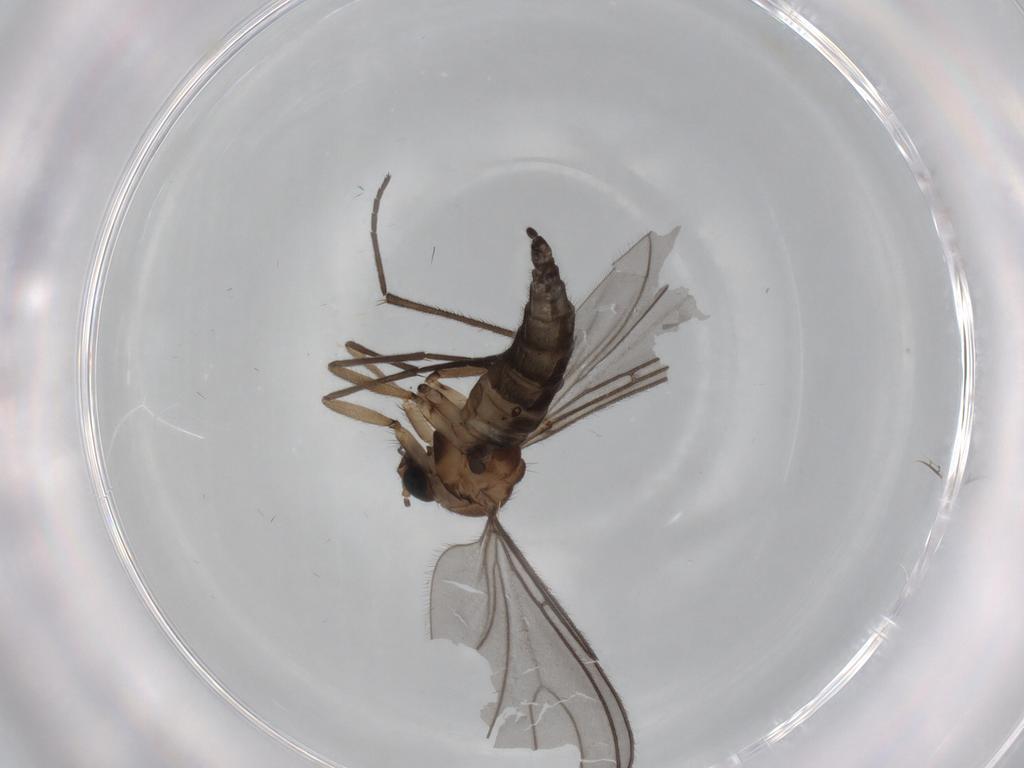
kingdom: Animalia
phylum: Arthropoda
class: Insecta
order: Diptera
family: Sciaridae
